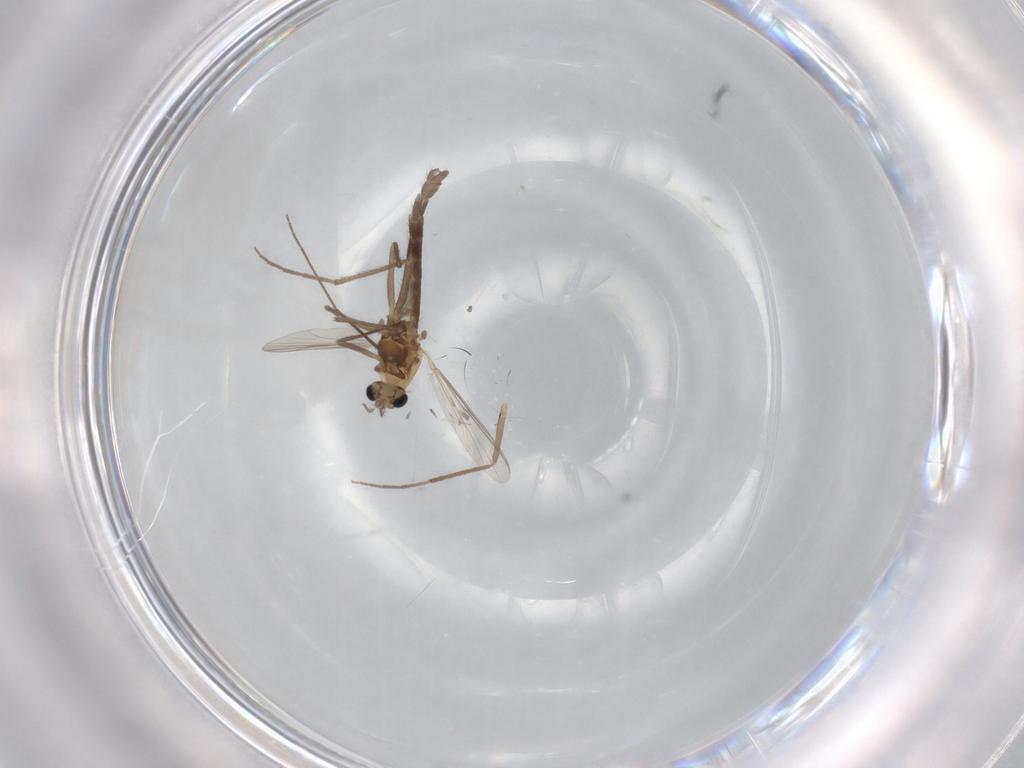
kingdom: Animalia
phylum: Arthropoda
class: Insecta
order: Diptera
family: Chironomidae
